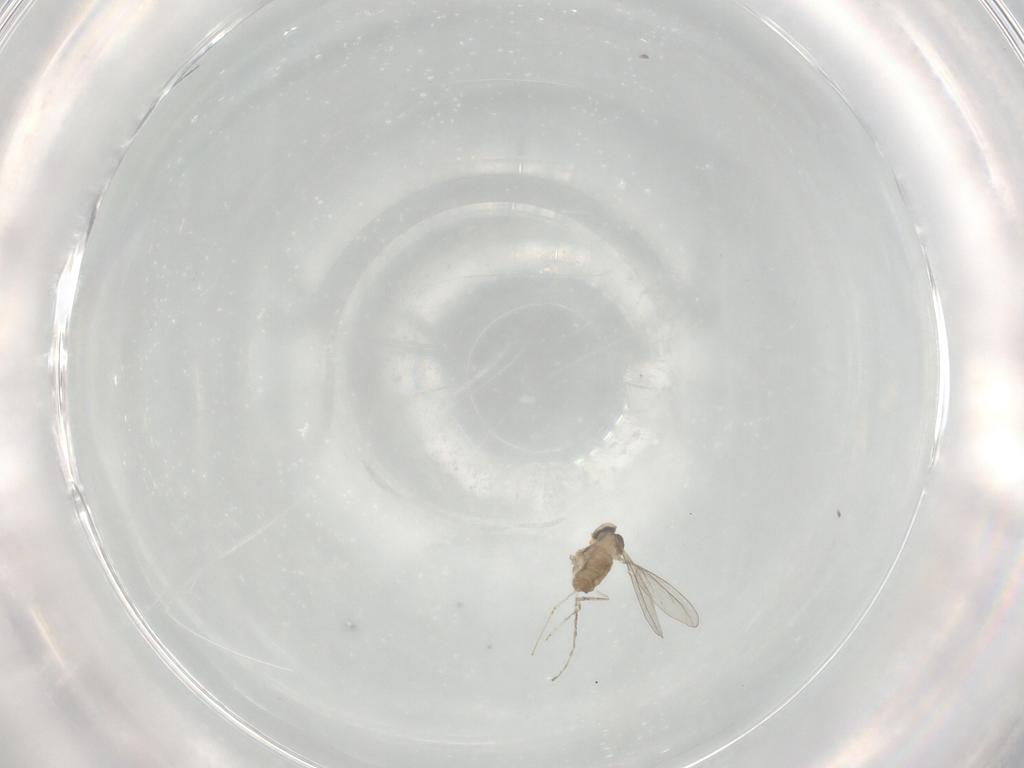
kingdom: Animalia
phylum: Arthropoda
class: Insecta
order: Diptera
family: Cecidomyiidae
